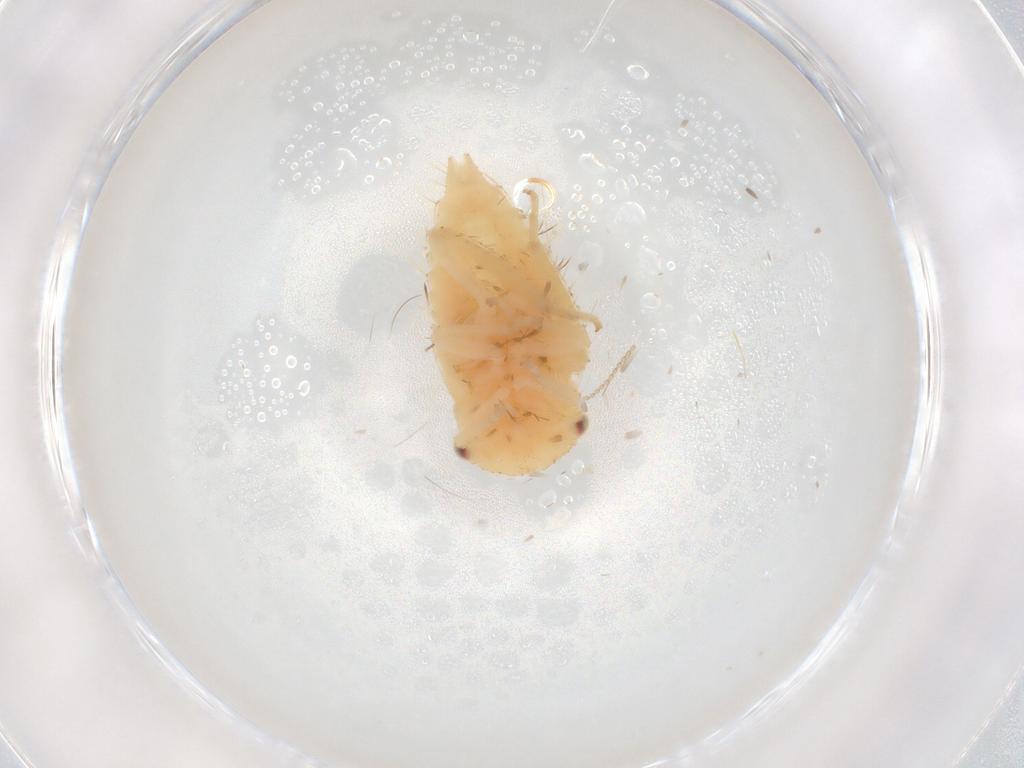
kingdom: Animalia
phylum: Arthropoda
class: Insecta
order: Hemiptera
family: Cicadellidae
